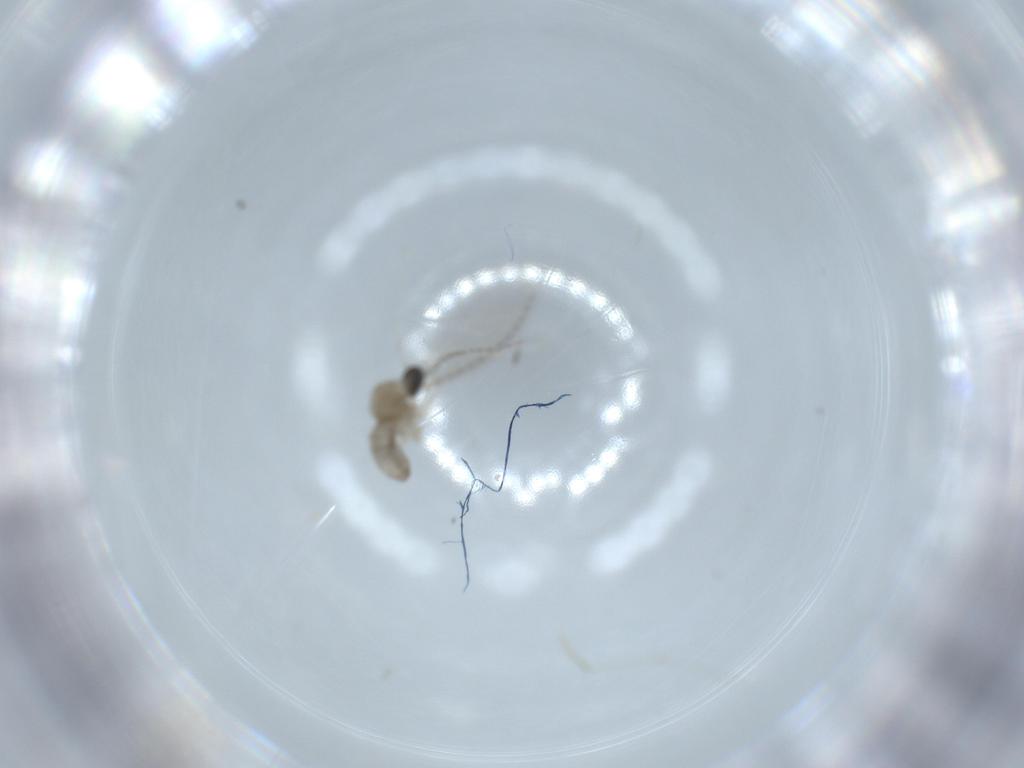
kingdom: Animalia
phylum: Arthropoda
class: Insecta
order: Diptera
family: Cecidomyiidae
